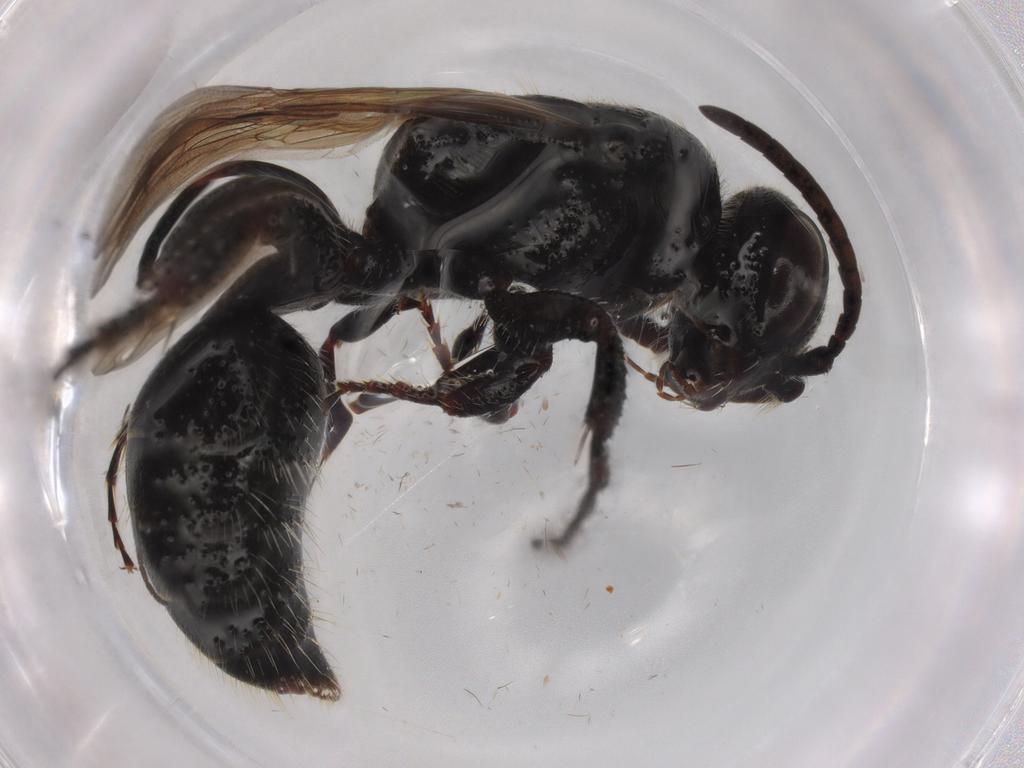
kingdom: Animalia
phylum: Arthropoda
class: Insecta
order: Hymenoptera
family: Tiphiidae
